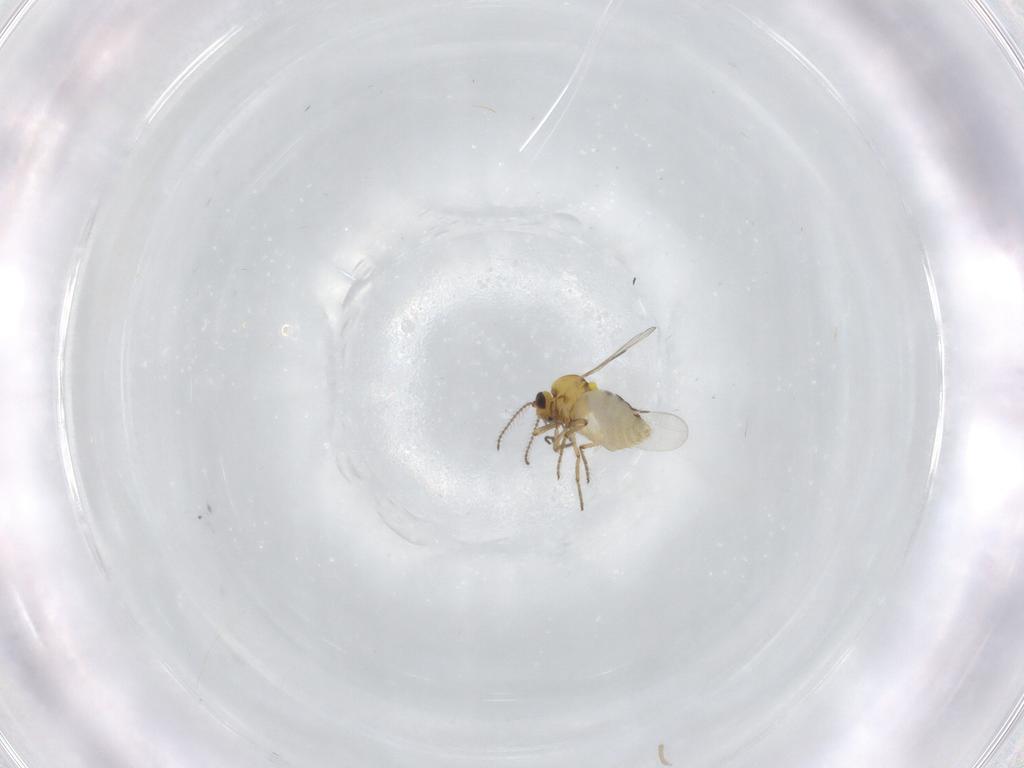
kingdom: Animalia
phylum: Arthropoda
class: Insecta
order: Diptera
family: Ceratopogonidae
